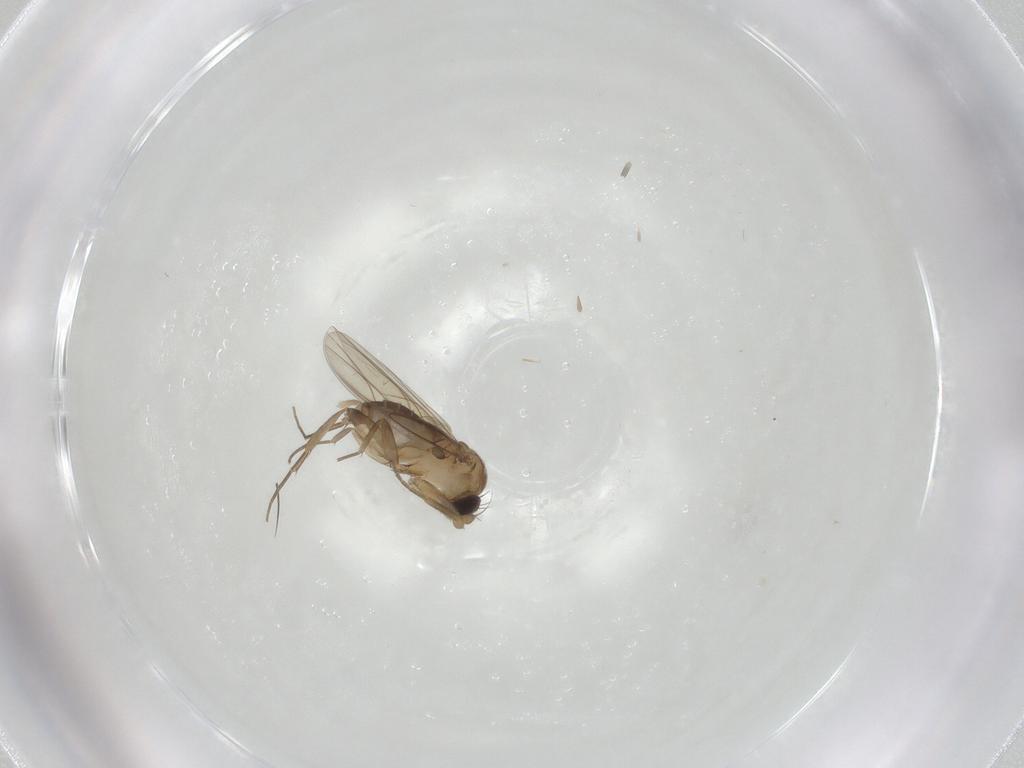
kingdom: Animalia
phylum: Arthropoda
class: Insecta
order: Diptera
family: Phoridae
